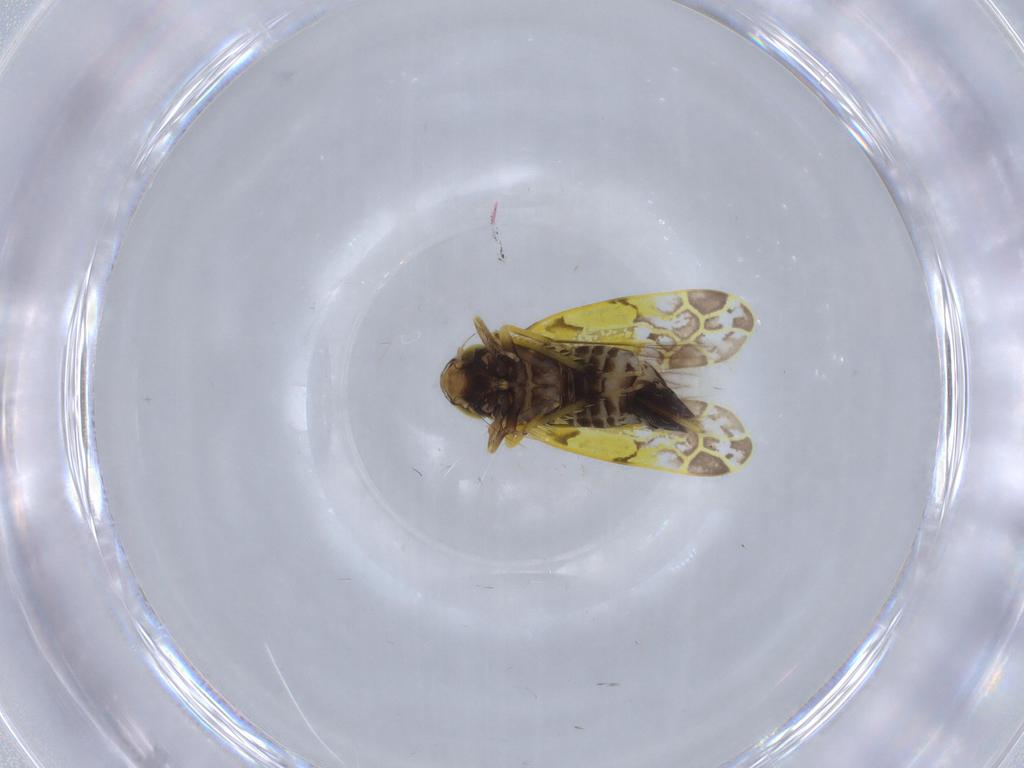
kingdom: Animalia
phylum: Arthropoda
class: Insecta
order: Hemiptera
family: Cicadellidae
